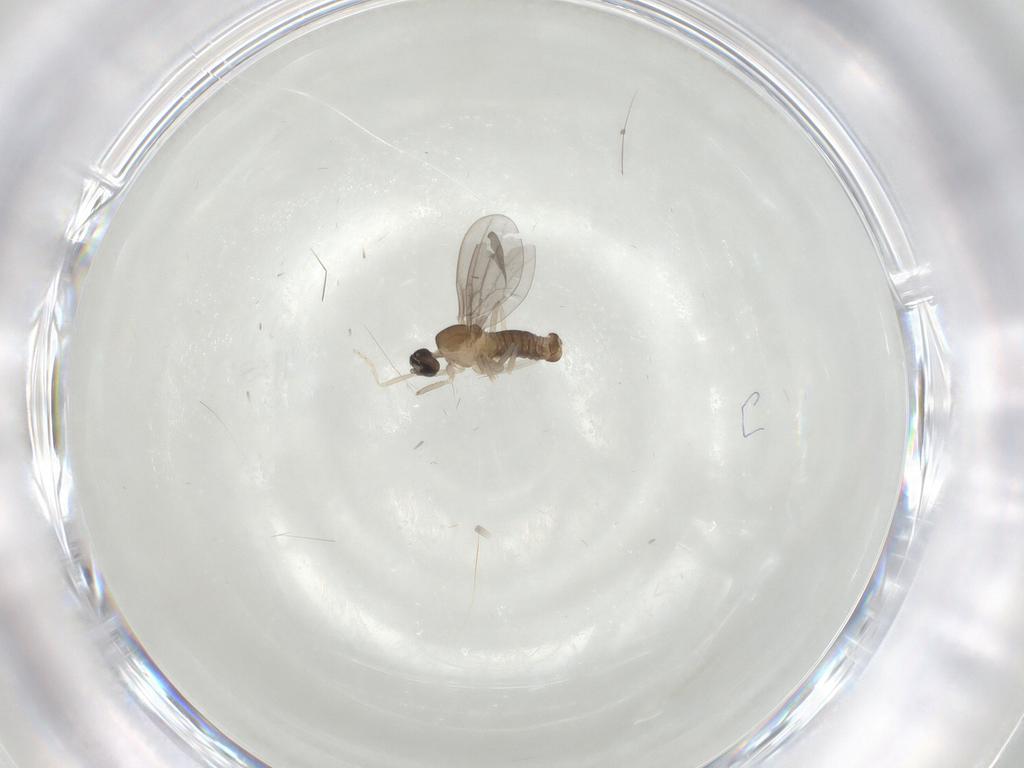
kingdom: Animalia
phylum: Arthropoda
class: Insecta
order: Diptera
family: Cecidomyiidae
